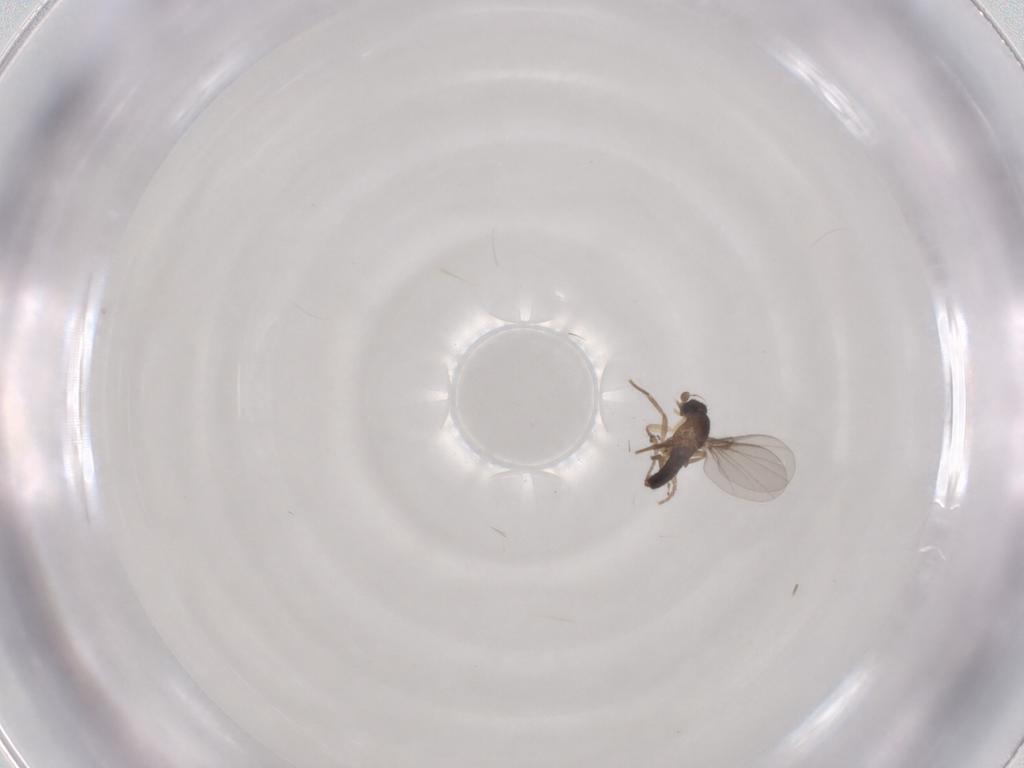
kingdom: Animalia
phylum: Arthropoda
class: Insecta
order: Diptera
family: Phoridae
